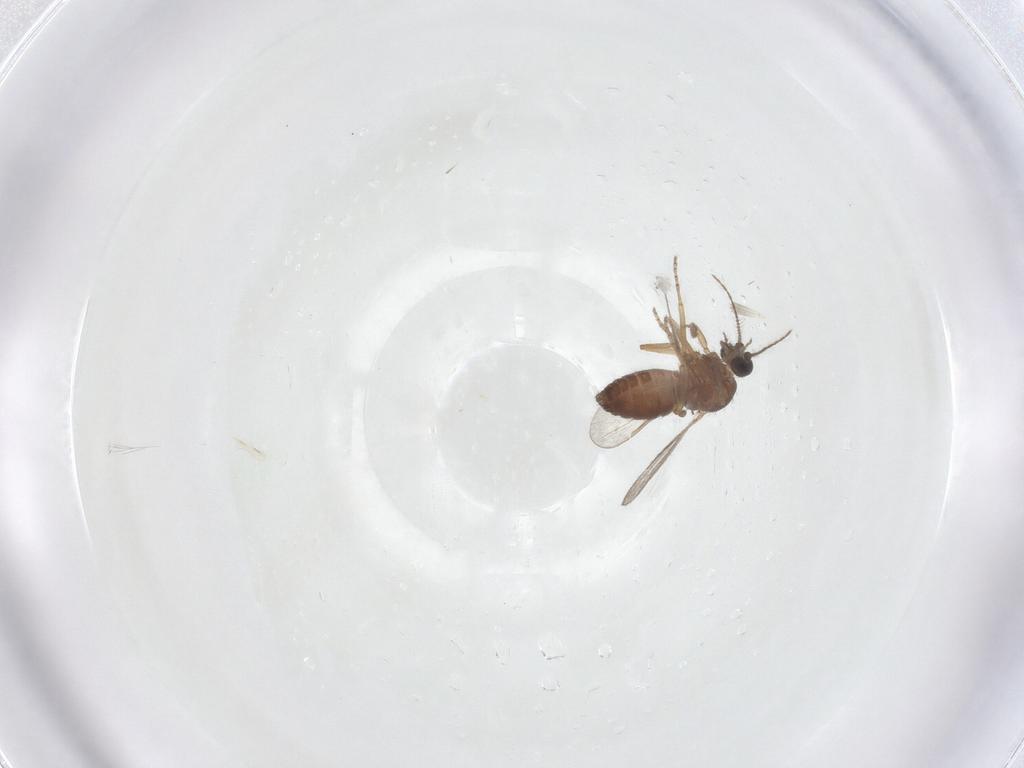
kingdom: Animalia
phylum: Arthropoda
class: Insecta
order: Diptera
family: Ceratopogonidae
